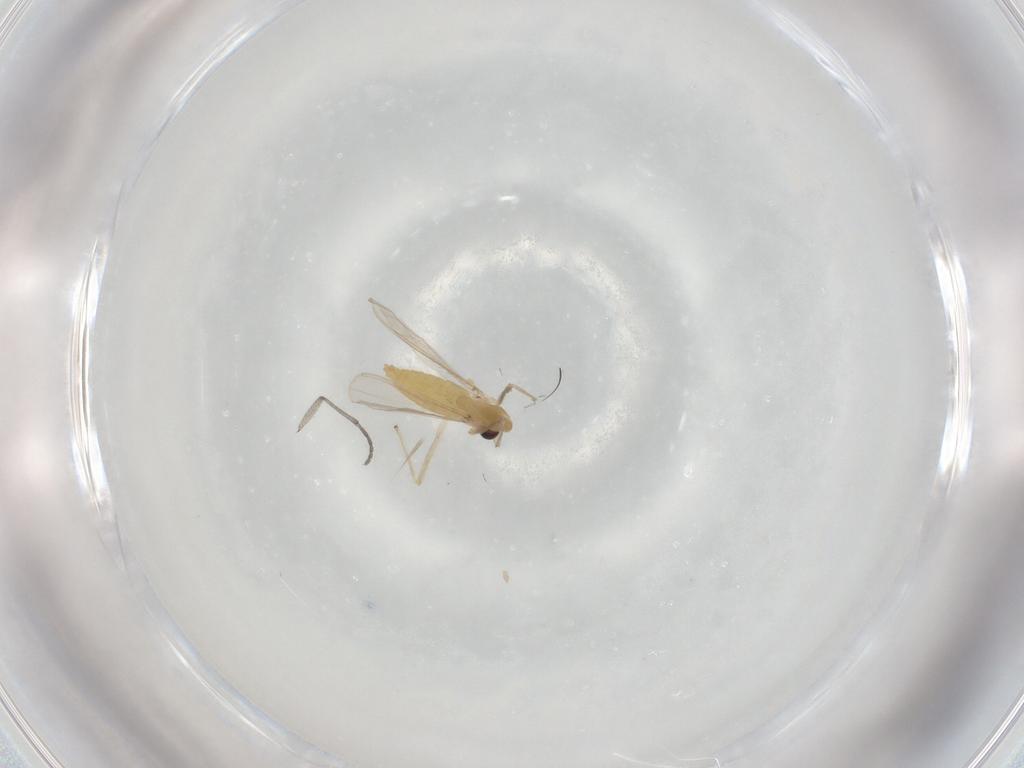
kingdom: Animalia
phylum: Arthropoda
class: Insecta
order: Diptera
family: Chironomidae
